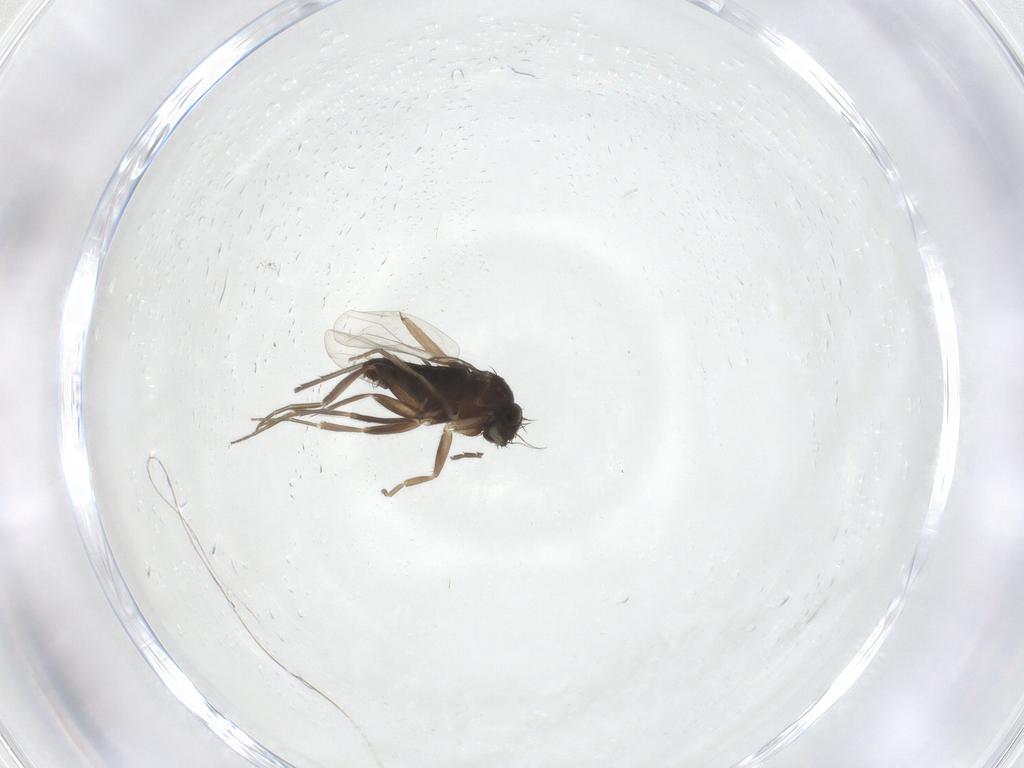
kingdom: Animalia
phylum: Arthropoda
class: Insecta
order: Diptera
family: Phoridae
